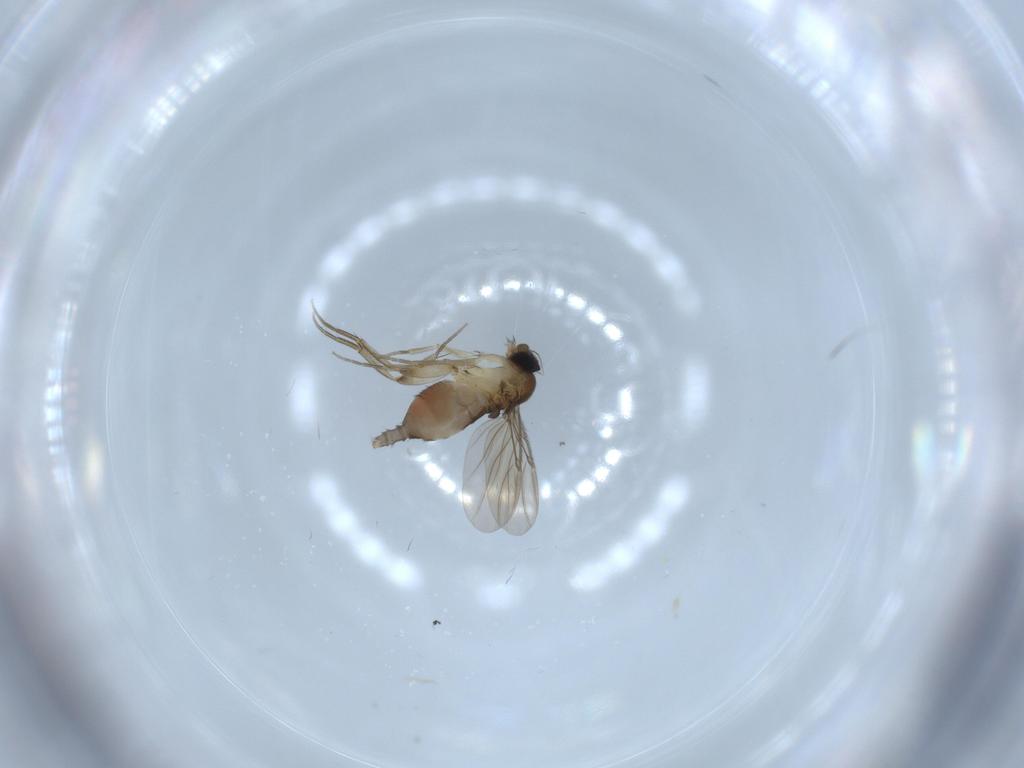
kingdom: Animalia
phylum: Arthropoda
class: Insecta
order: Diptera
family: Phoridae
